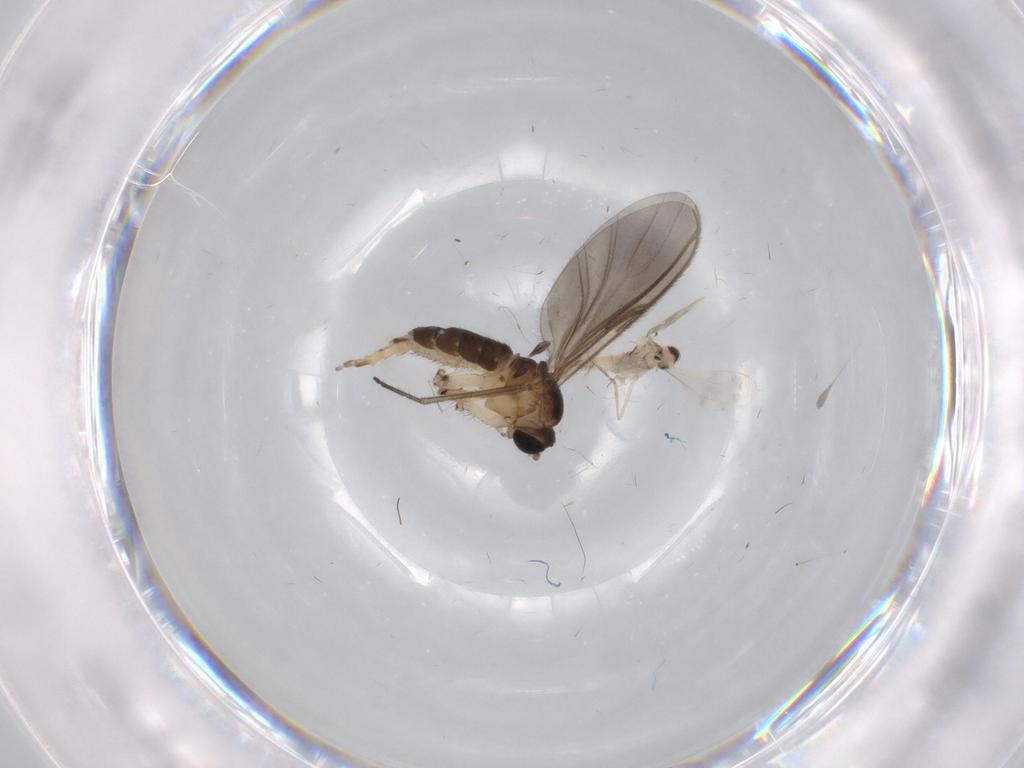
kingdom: Animalia
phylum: Arthropoda
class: Insecta
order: Diptera
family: Sciaridae
